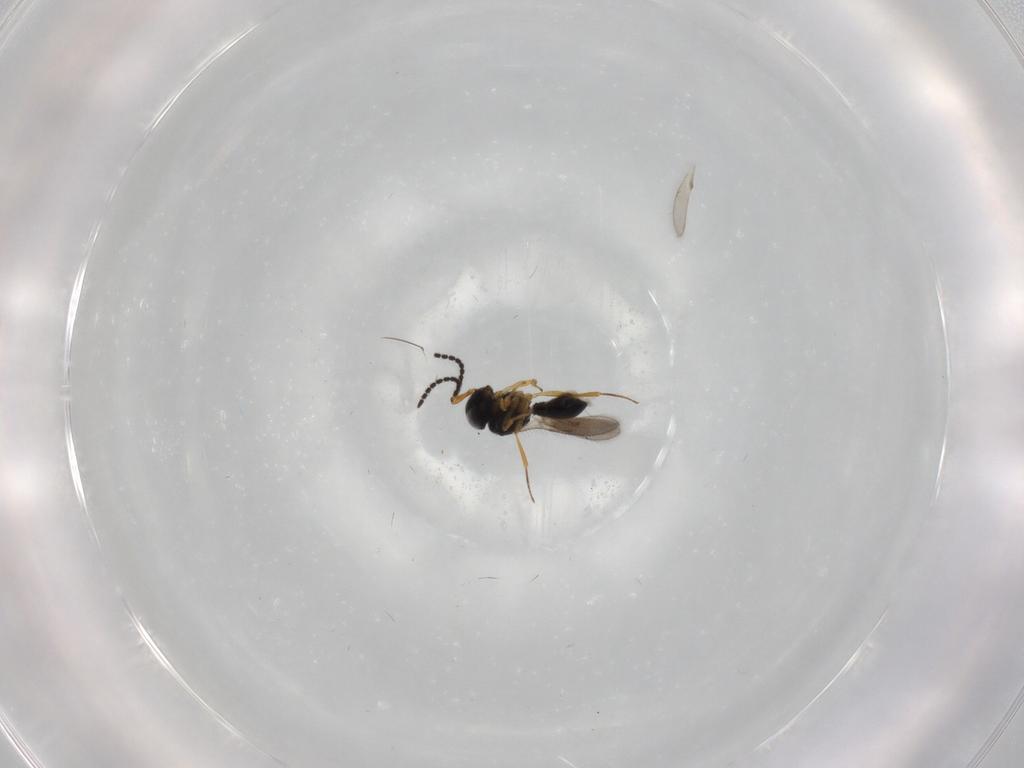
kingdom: Animalia
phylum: Arthropoda
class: Insecta
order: Hymenoptera
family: Scelionidae
